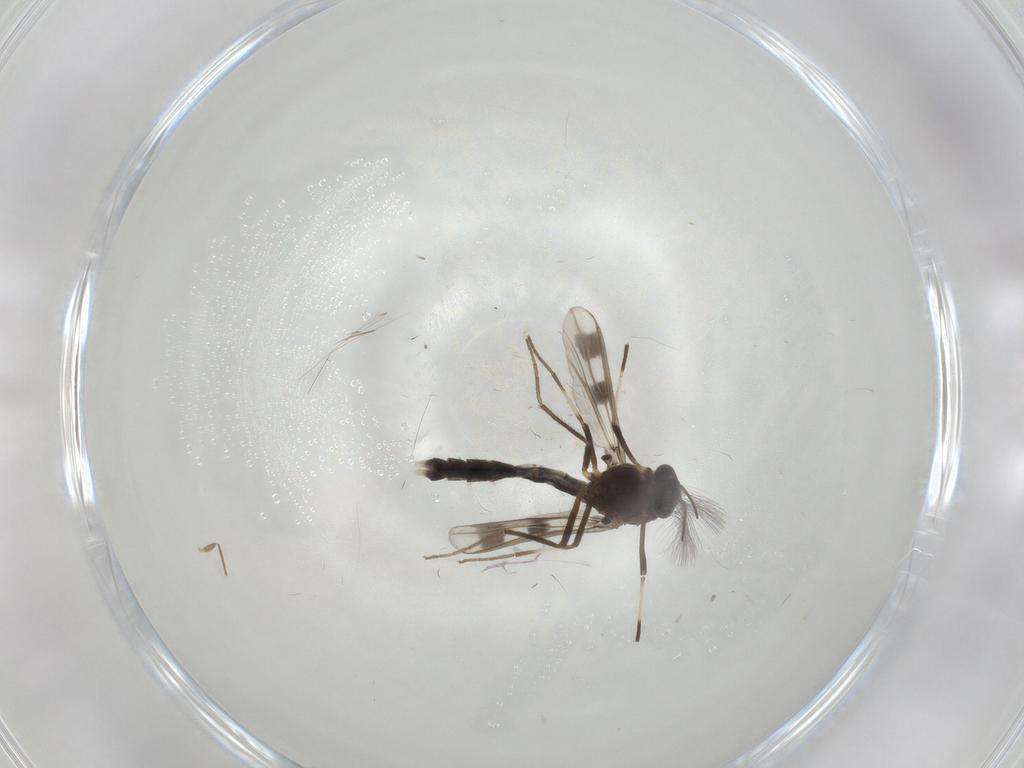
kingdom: Animalia
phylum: Arthropoda
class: Insecta
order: Diptera
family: Chironomidae
